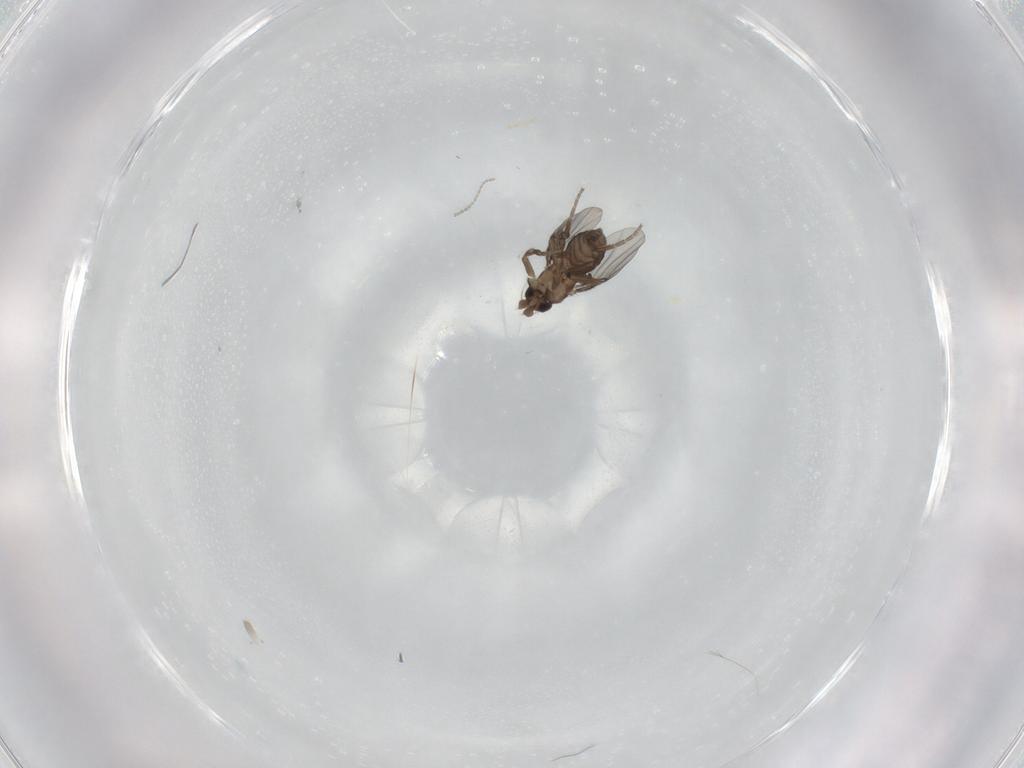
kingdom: Animalia
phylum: Arthropoda
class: Insecta
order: Diptera
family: Phoridae
